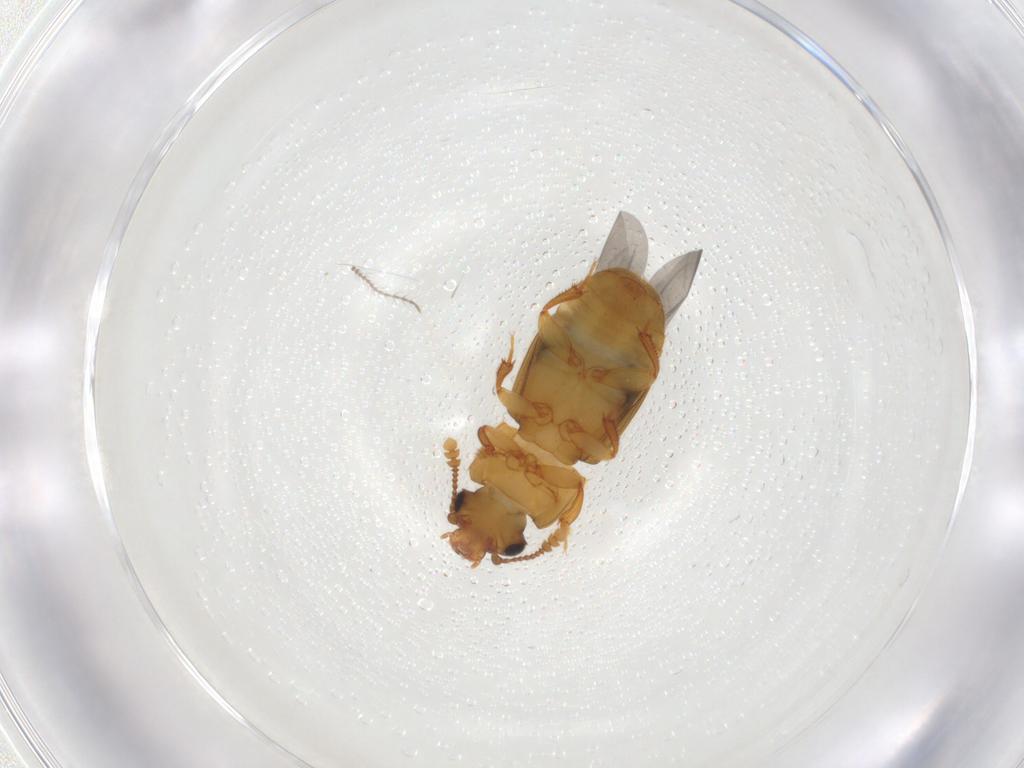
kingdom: Animalia
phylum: Arthropoda
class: Insecta
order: Coleoptera
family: Nitidulidae
